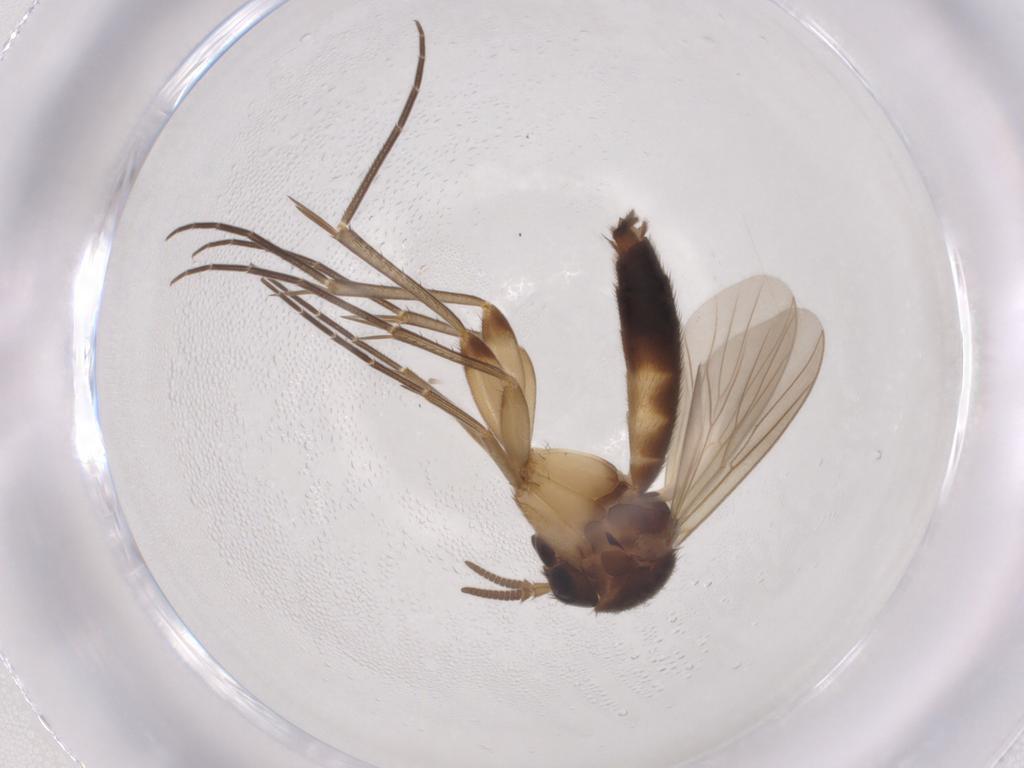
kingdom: Animalia
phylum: Arthropoda
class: Insecta
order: Diptera
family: Mycetophilidae
